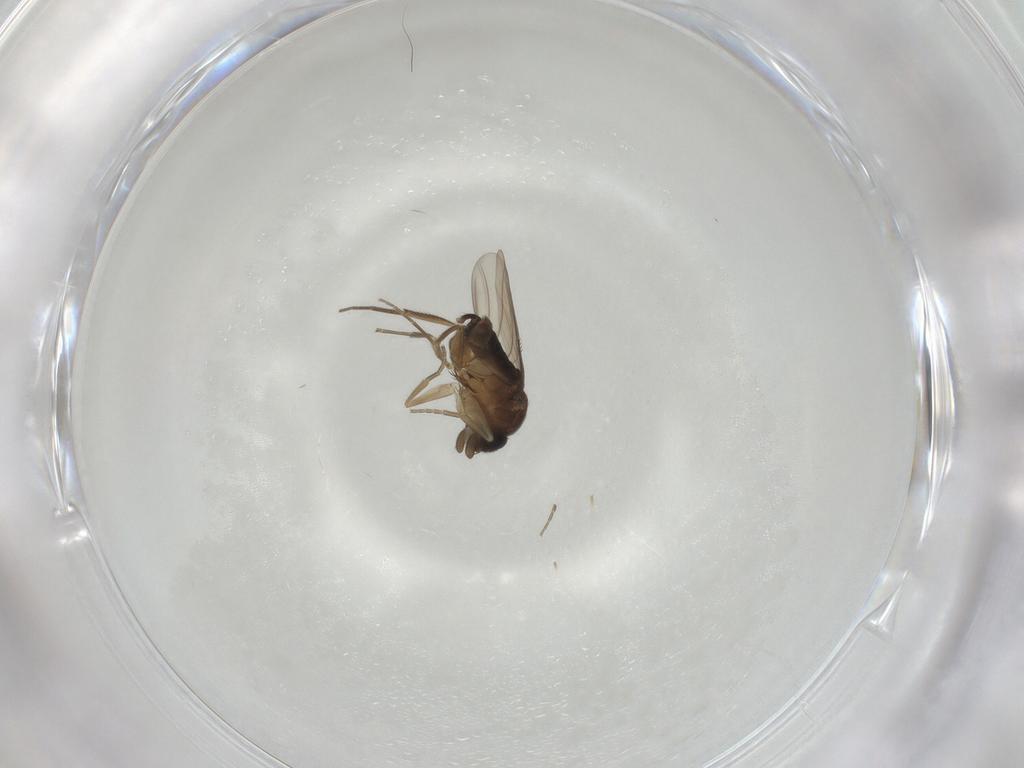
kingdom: Animalia
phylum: Arthropoda
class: Insecta
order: Diptera
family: Phoridae
